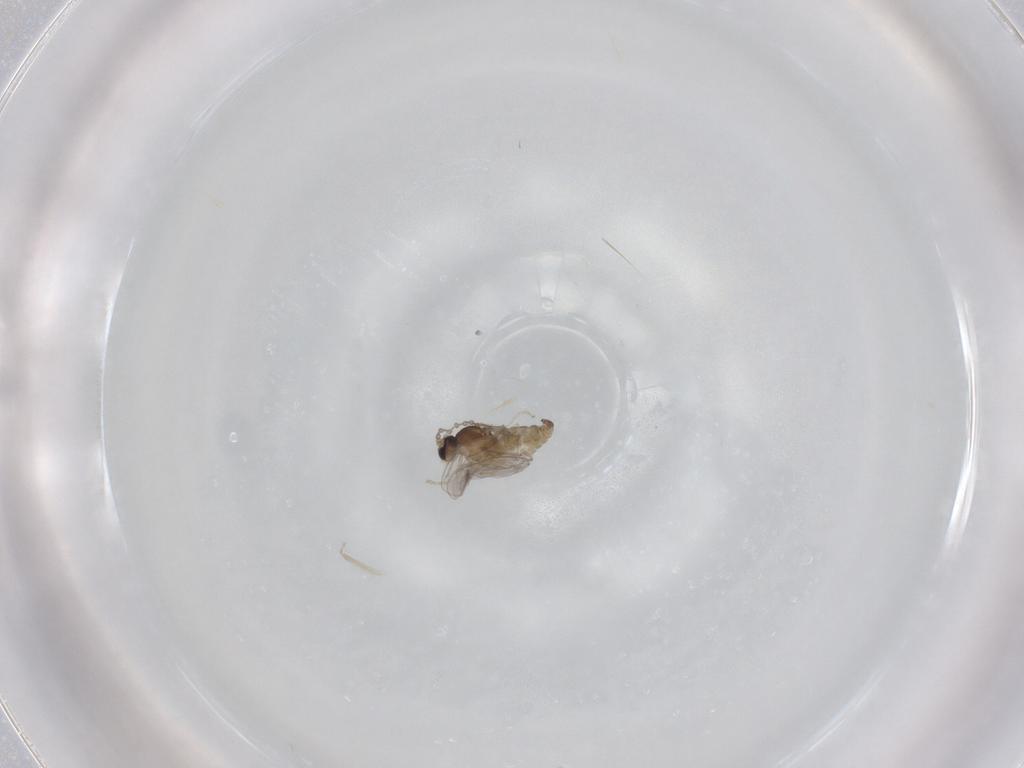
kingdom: Animalia
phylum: Arthropoda
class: Insecta
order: Diptera
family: Cecidomyiidae
